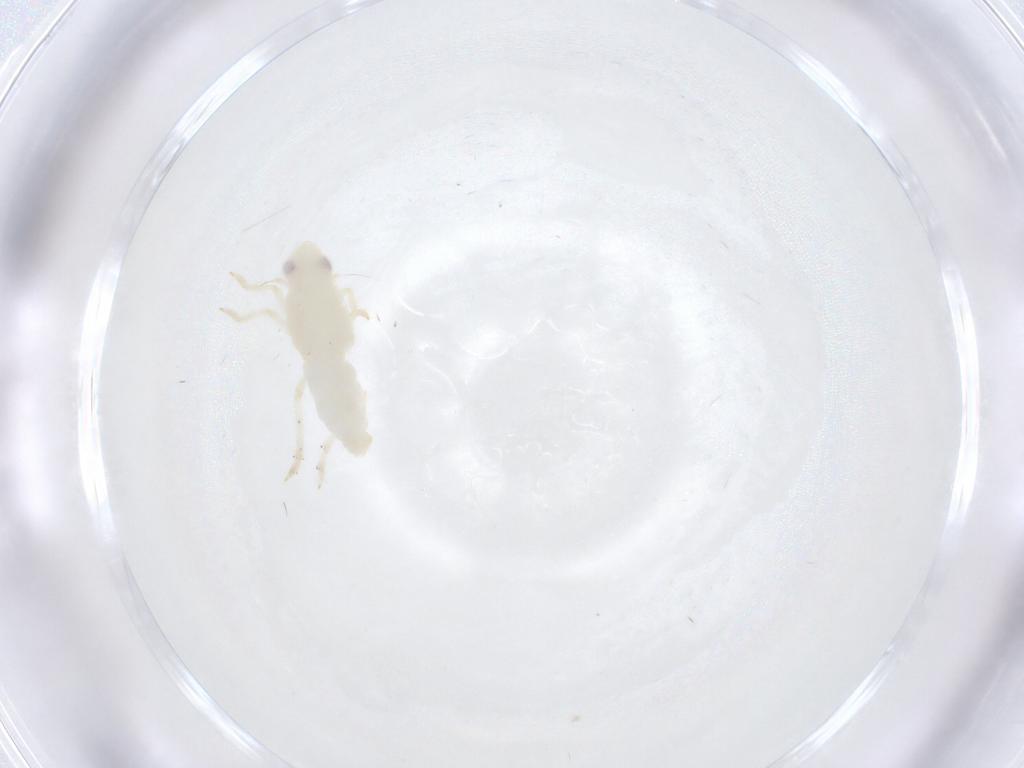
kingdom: Animalia
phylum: Arthropoda
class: Insecta
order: Hemiptera
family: Tropiduchidae
